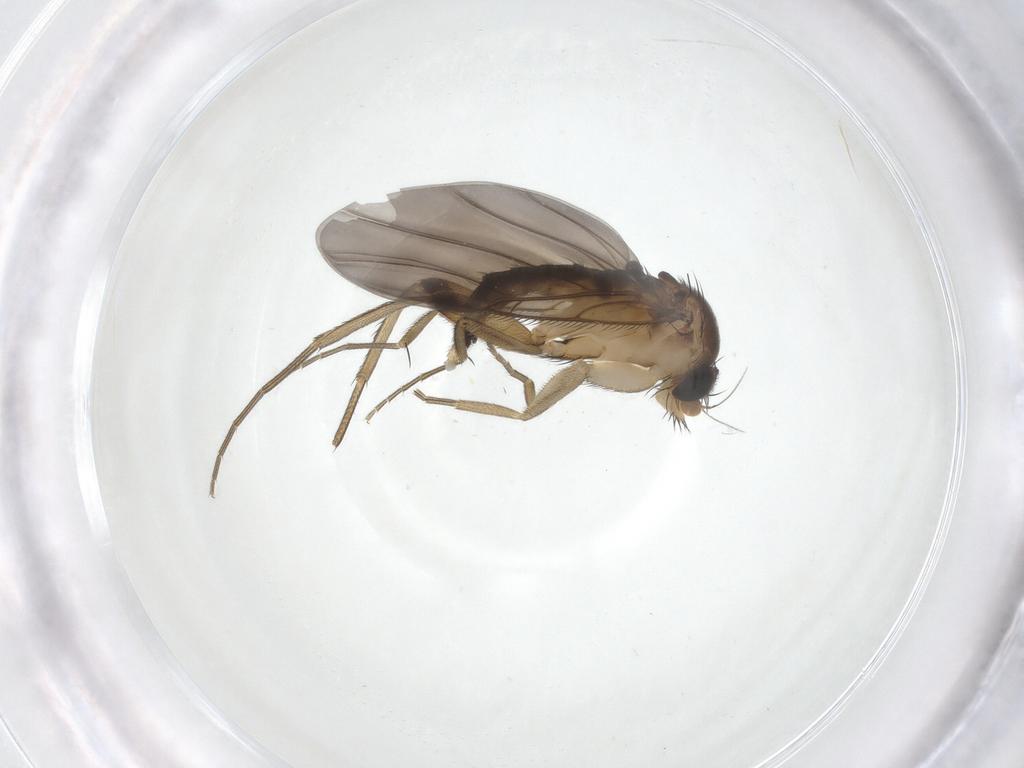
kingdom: Animalia
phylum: Arthropoda
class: Insecta
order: Diptera
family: Phoridae
